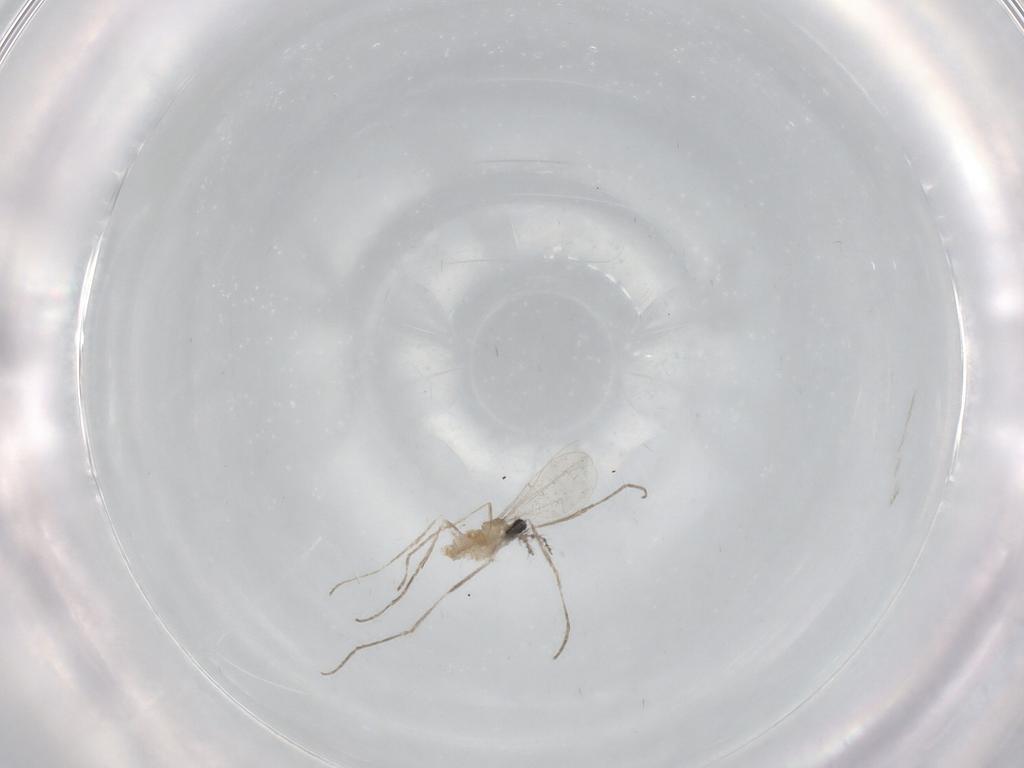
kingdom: Animalia
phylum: Arthropoda
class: Insecta
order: Diptera
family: Cecidomyiidae
